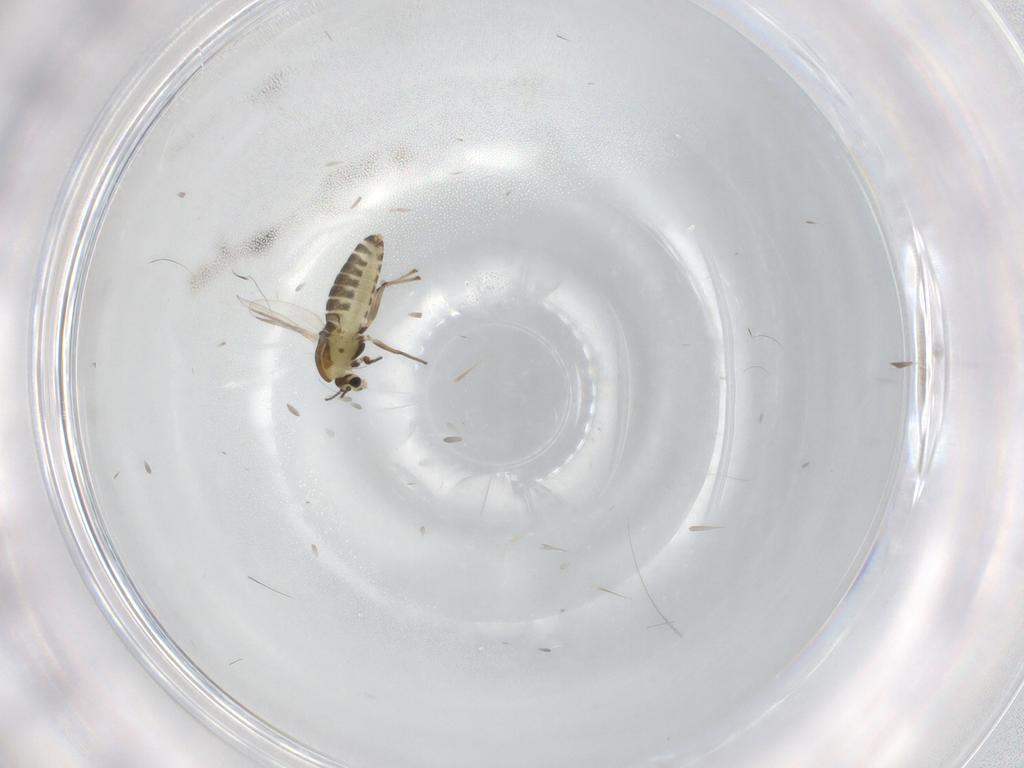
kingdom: Animalia
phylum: Arthropoda
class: Insecta
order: Diptera
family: Chironomidae
